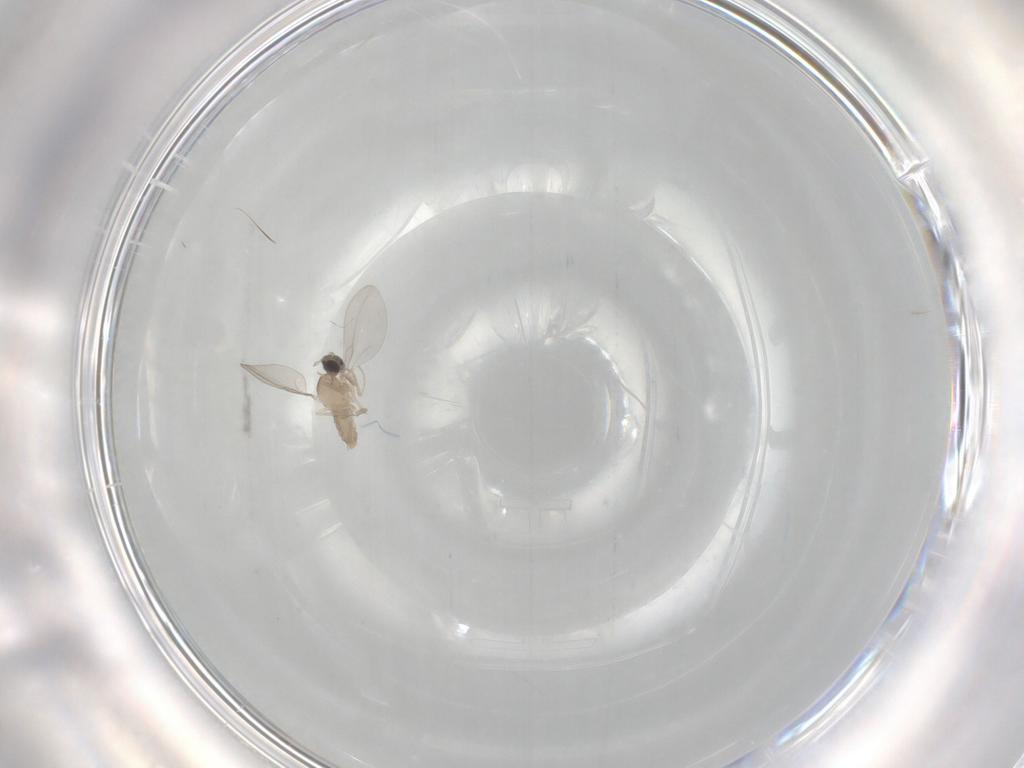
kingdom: Animalia
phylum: Arthropoda
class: Insecta
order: Diptera
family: Cecidomyiidae
